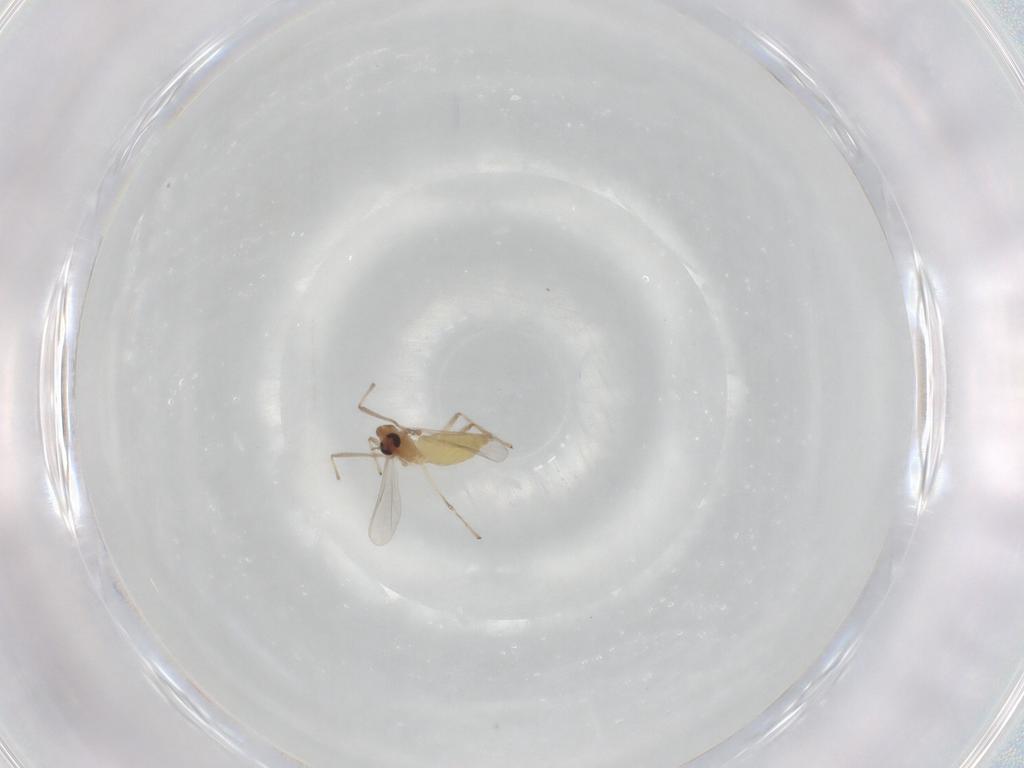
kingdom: Animalia
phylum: Arthropoda
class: Insecta
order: Diptera
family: Chironomidae
